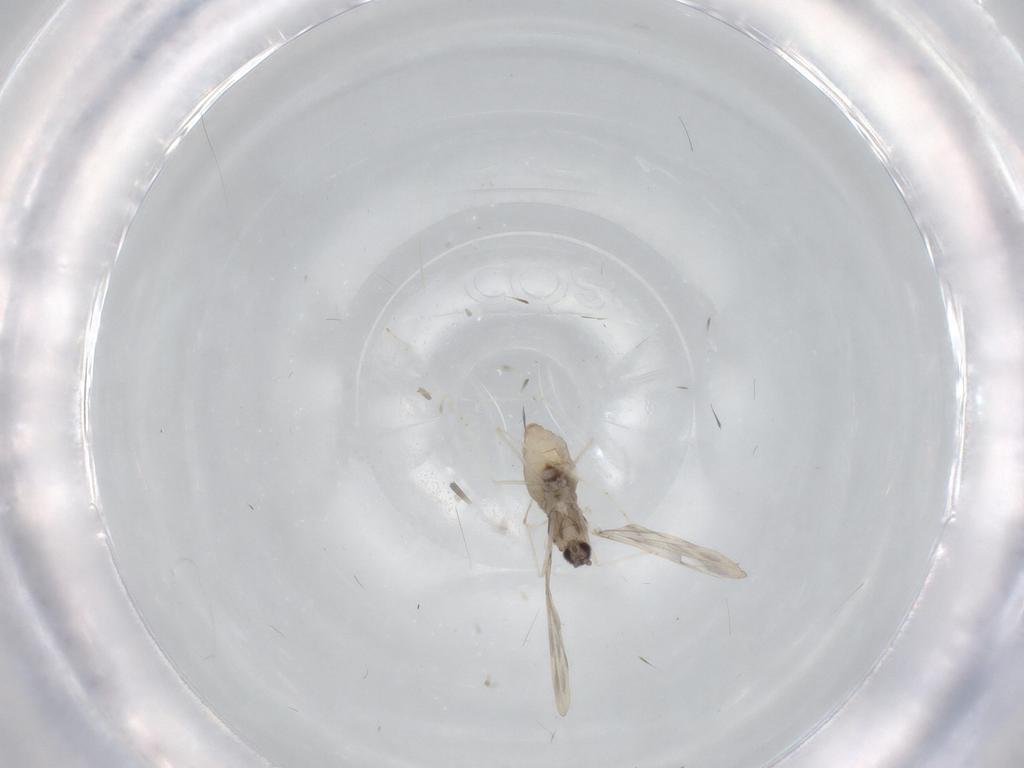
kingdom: Animalia
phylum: Arthropoda
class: Insecta
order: Diptera
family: Cecidomyiidae
